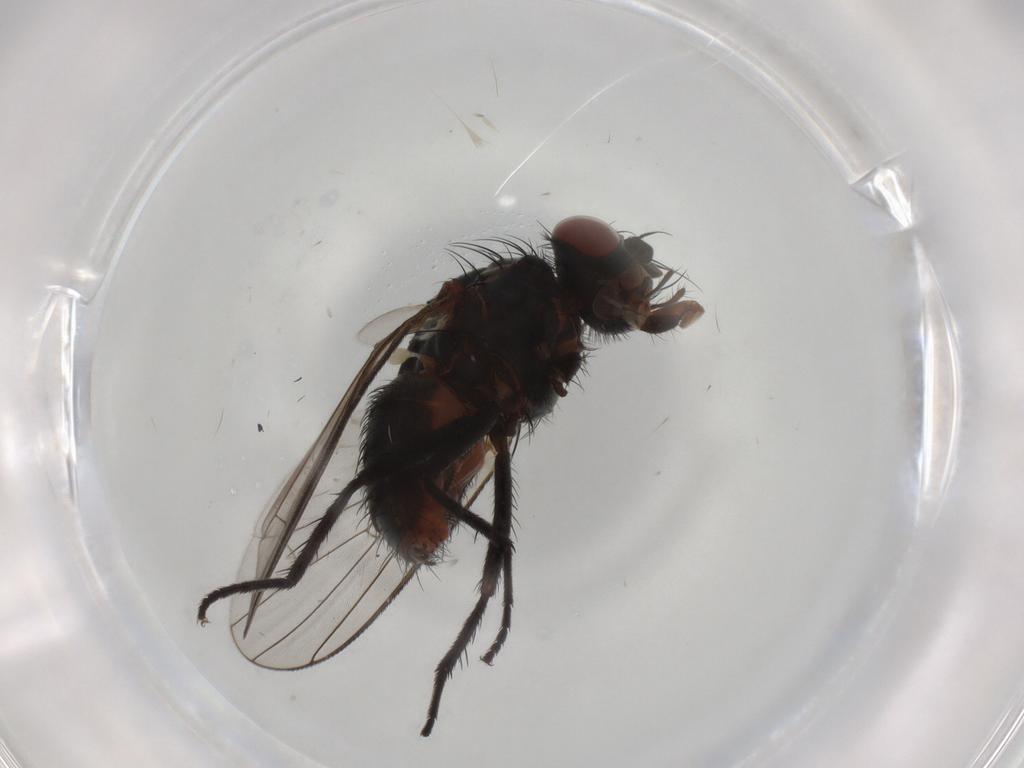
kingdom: Animalia
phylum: Arthropoda
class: Insecta
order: Diptera
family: Anthomyiidae
